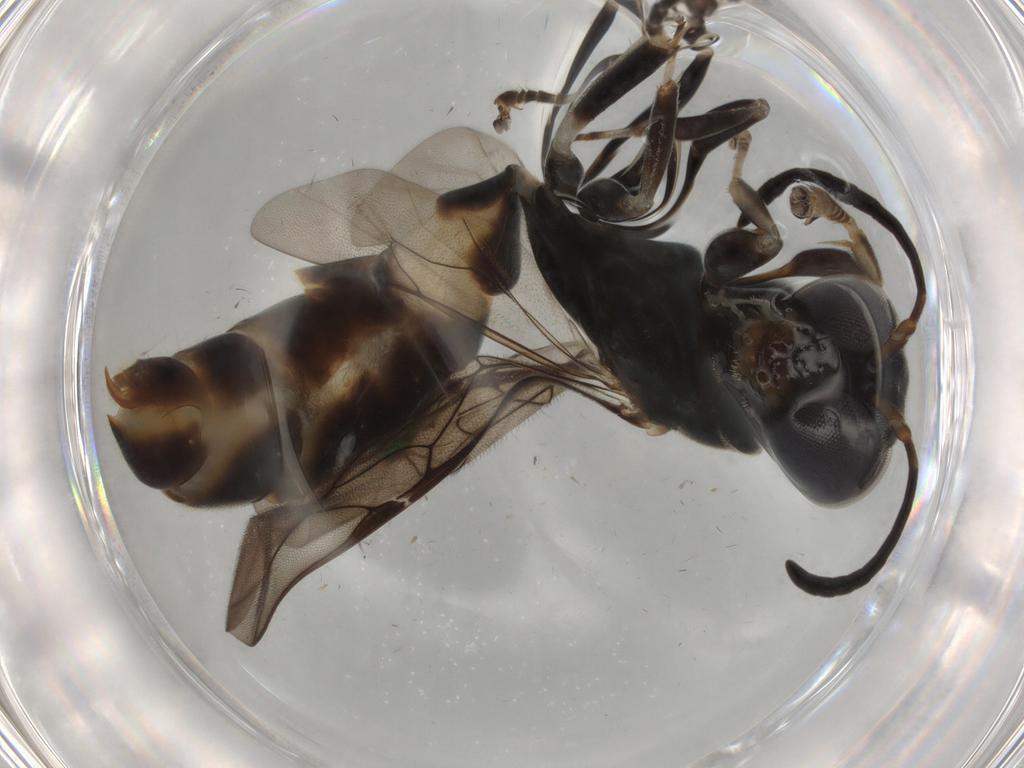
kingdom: Animalia
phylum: Arthropoda
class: Insecta
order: Hymenoptera
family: Crabronidae
